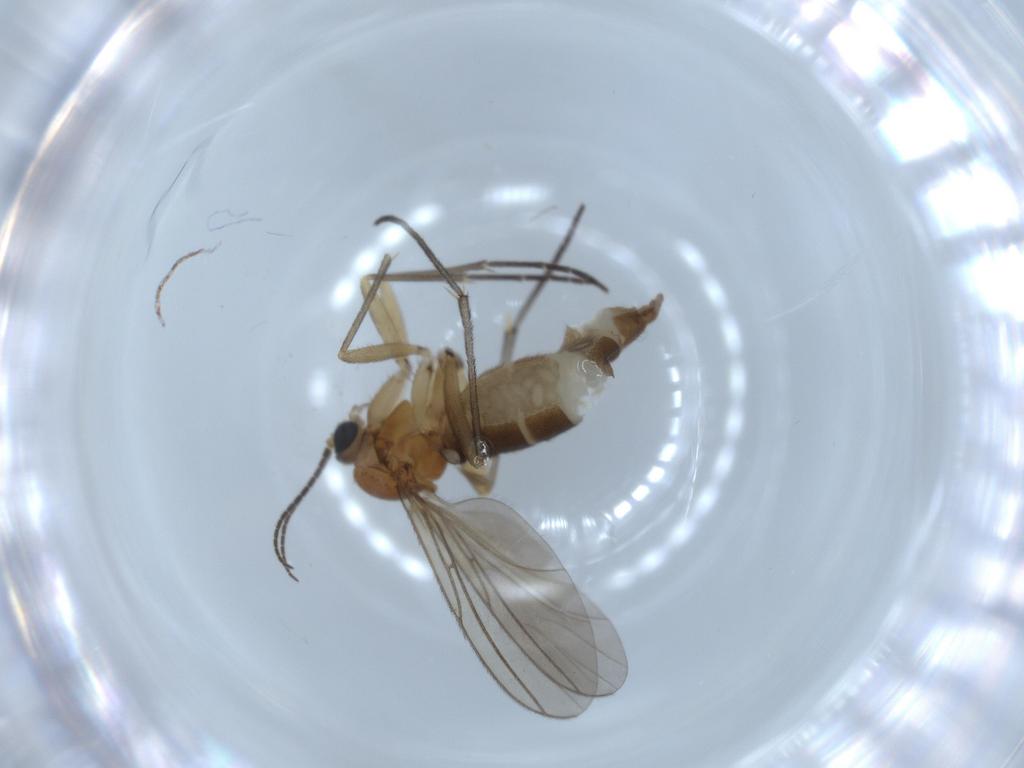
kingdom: Animalia
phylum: Arthropoda
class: Insecta
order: Diptera
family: Sciaridae
